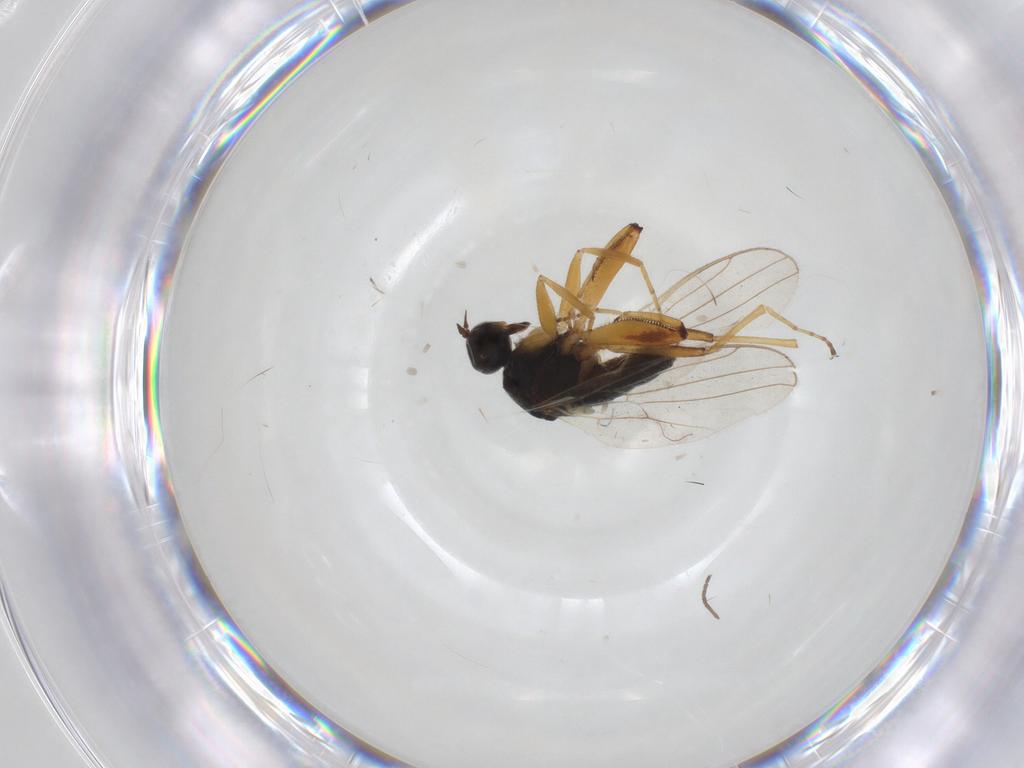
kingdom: Animalia
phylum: Arthropoda
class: Insecta
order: Diptera
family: Hybotidae
